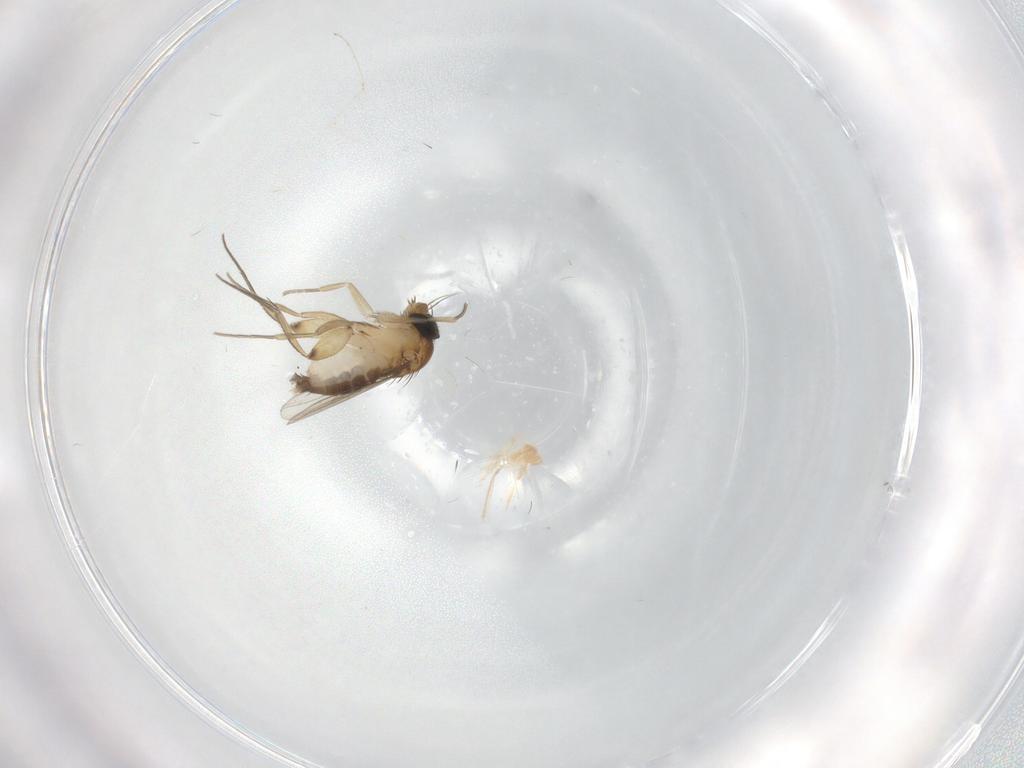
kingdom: Animalia
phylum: Arthropoda
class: Insecta
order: Diptera
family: Phoridae
